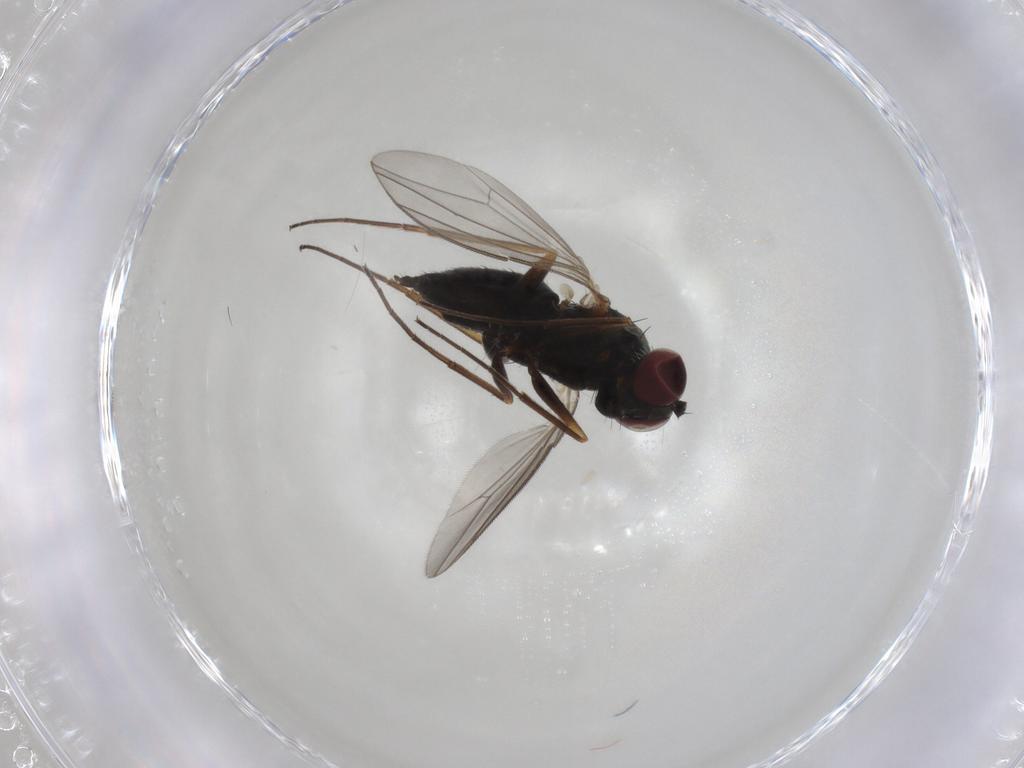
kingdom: Animalia
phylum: Arthropoda
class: Insecta
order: Diptera
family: Dolichopodidae
